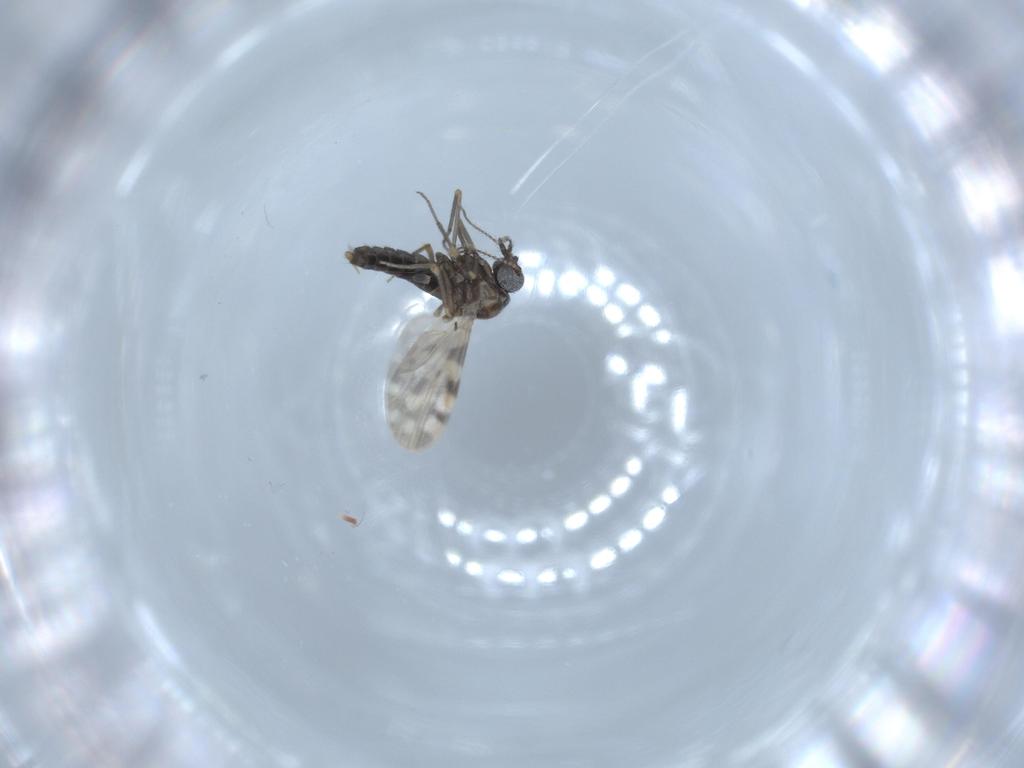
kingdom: Animalia
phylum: Arthropoda
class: Insecta
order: Diptera
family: Ceratopogonidae
